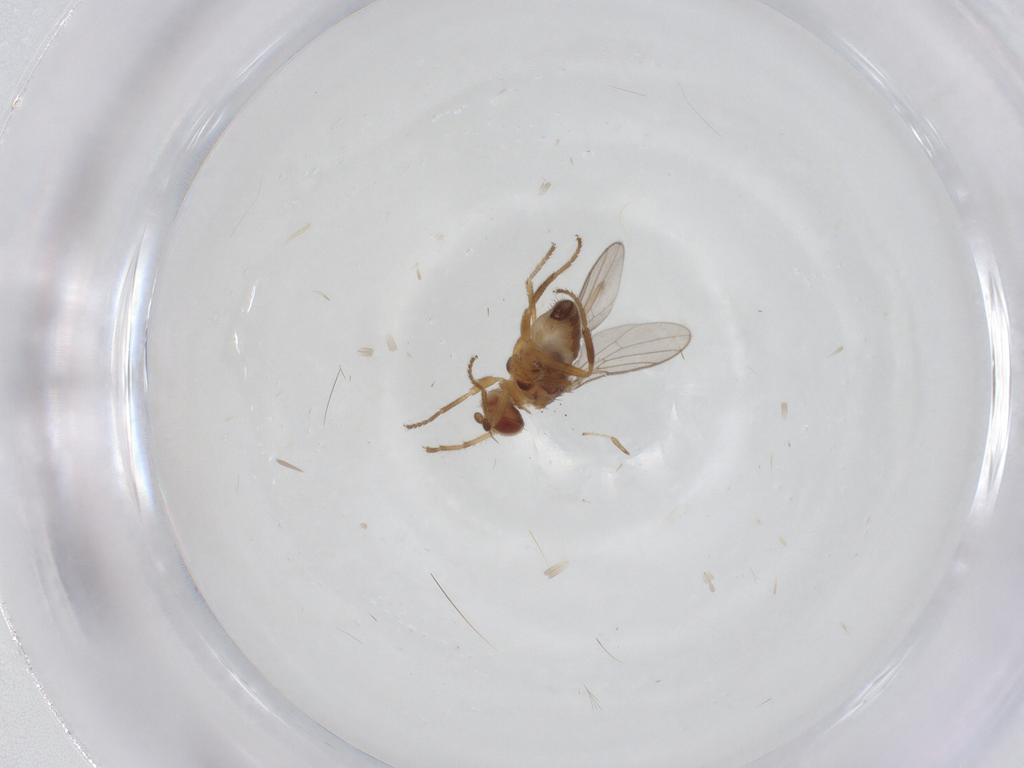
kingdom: Animalia
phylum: Arthropoda
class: Insecta
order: Diptera
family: Chloropidae
